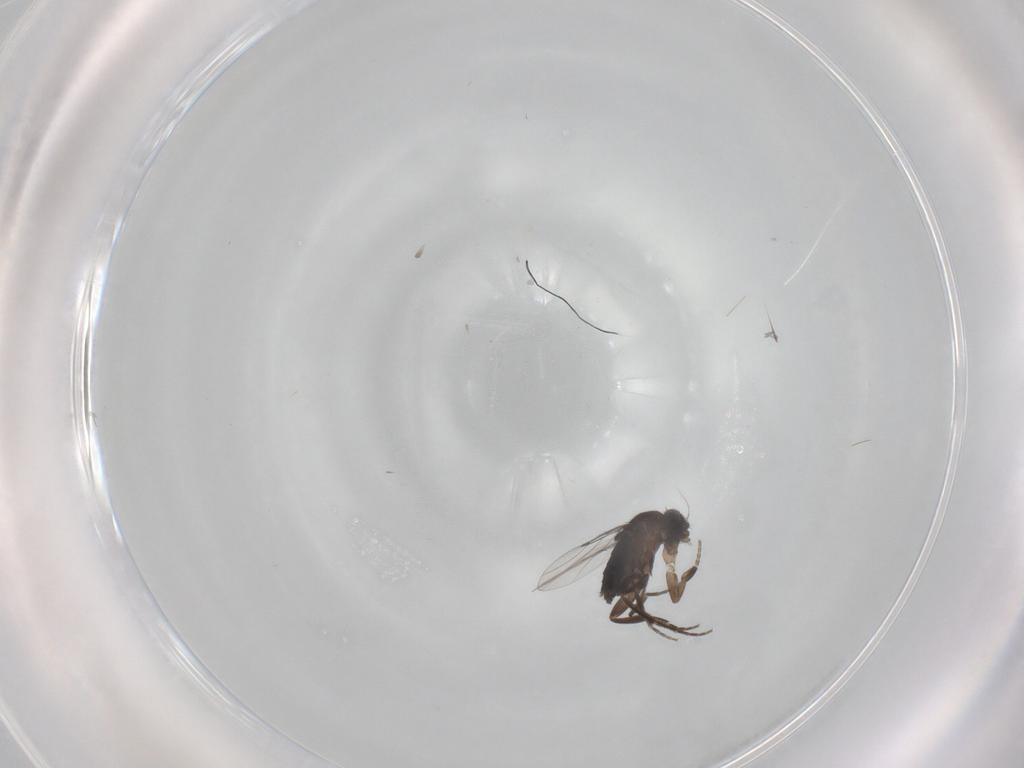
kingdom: Animalia
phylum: Arthropoda
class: Insecta
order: Diptera
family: Phoridae
